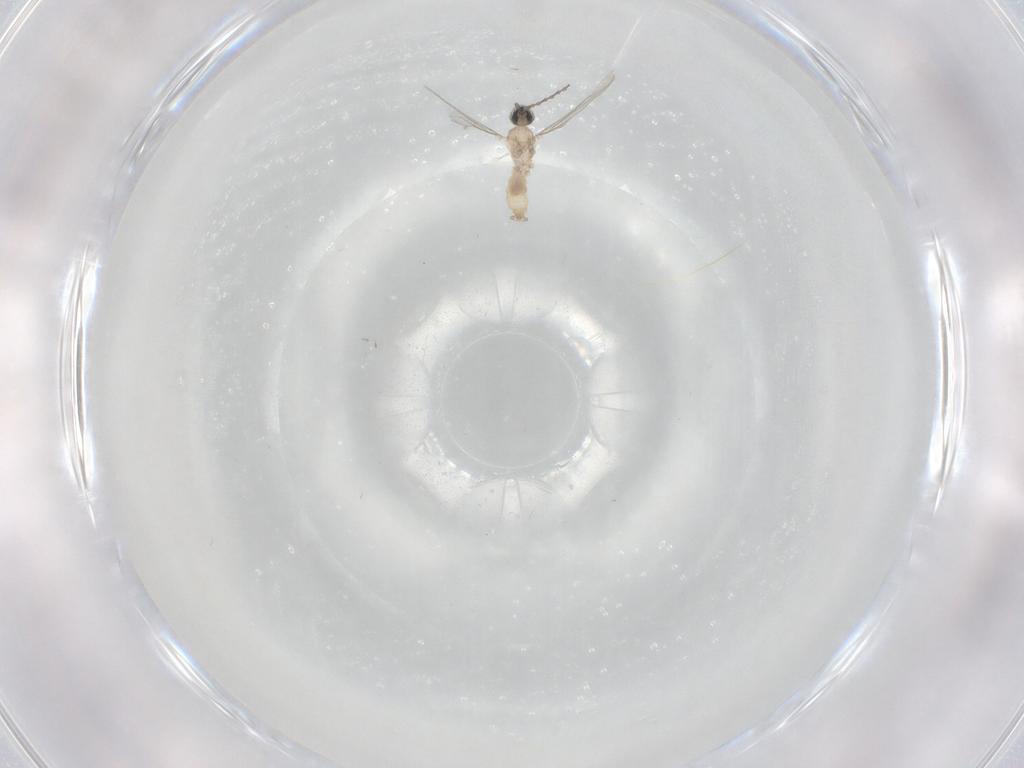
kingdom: Animalia
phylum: Arthropoda
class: Insecta
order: Diptera
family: Cecidomyiidae
